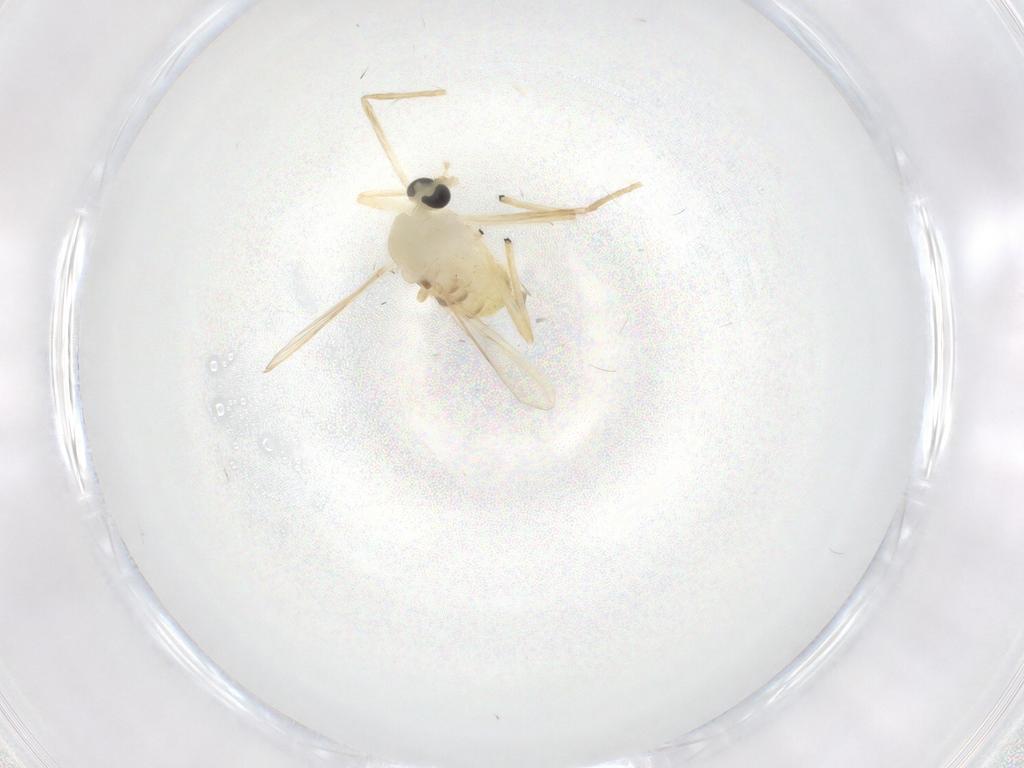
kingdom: Animalia
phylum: Arthropoda
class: Insecta
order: Diptera
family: Chironomidae
